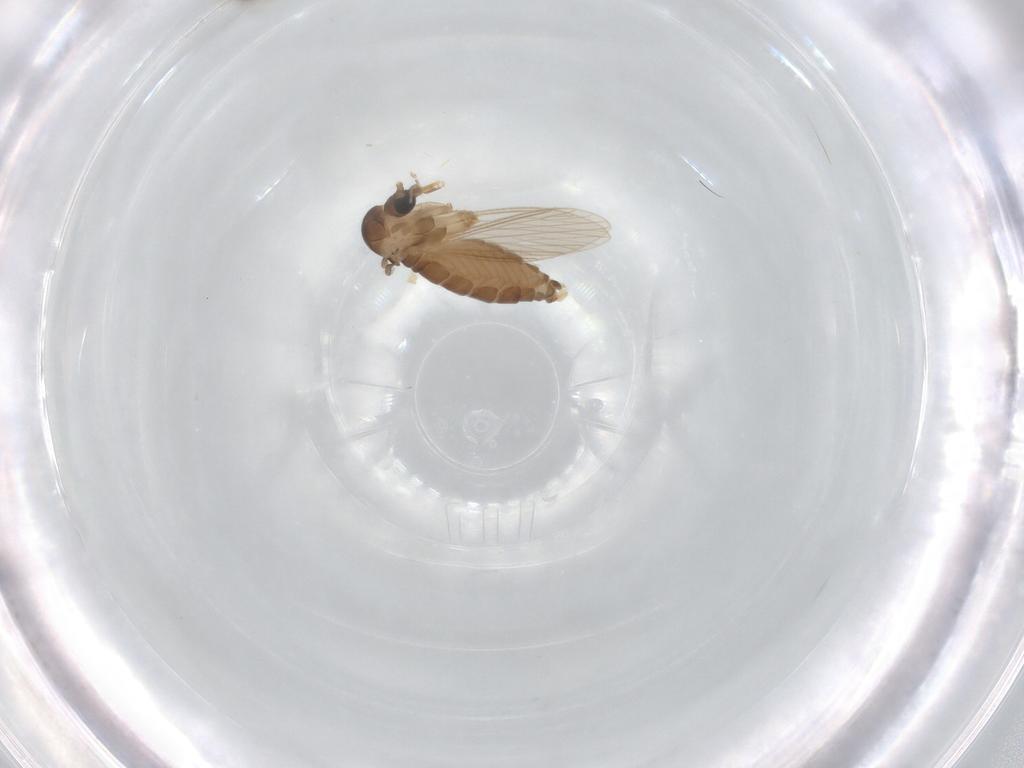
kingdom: Animalia
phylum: Arthropoda
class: Insecta
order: Diptera
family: Psychodidae
